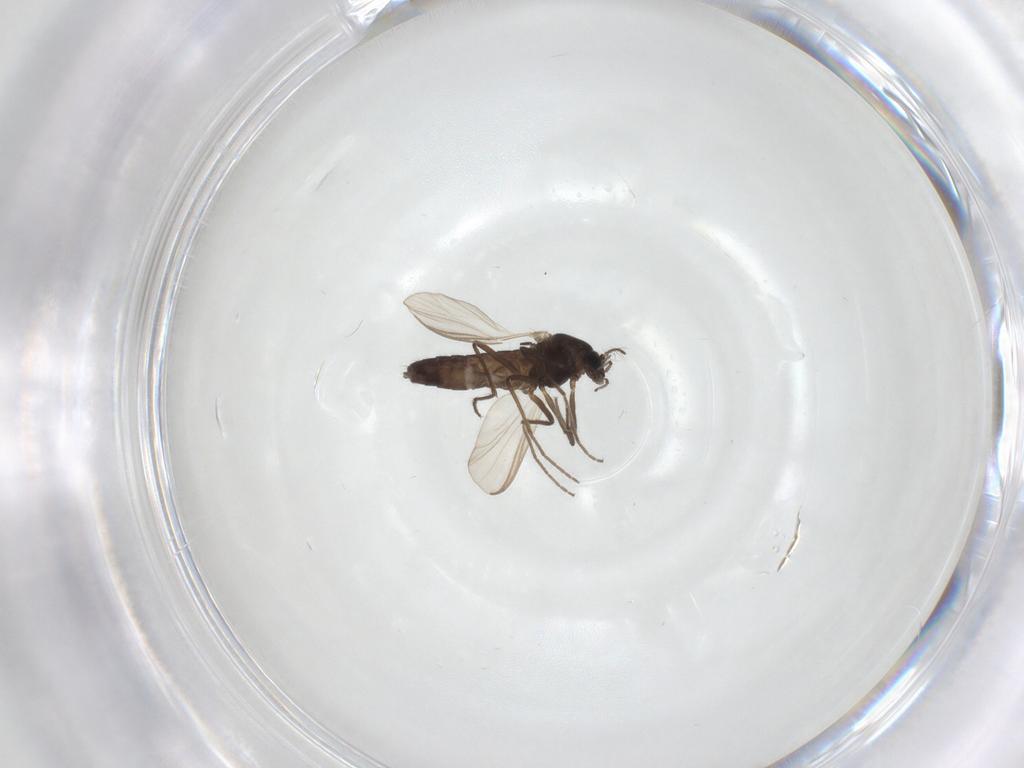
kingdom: Animalia
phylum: Arthropoda
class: Insecta
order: Diptera
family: Chironomidae
